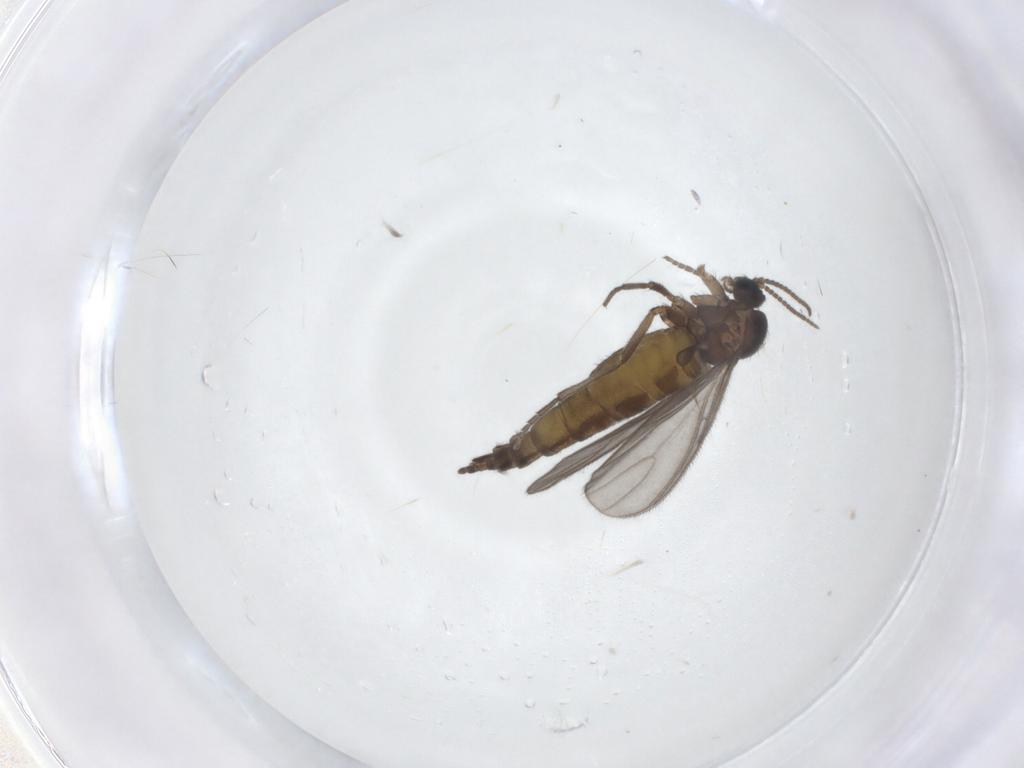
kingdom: Animalia
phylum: Arthropoda
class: Insecta
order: Diptera
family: Sciaridae
